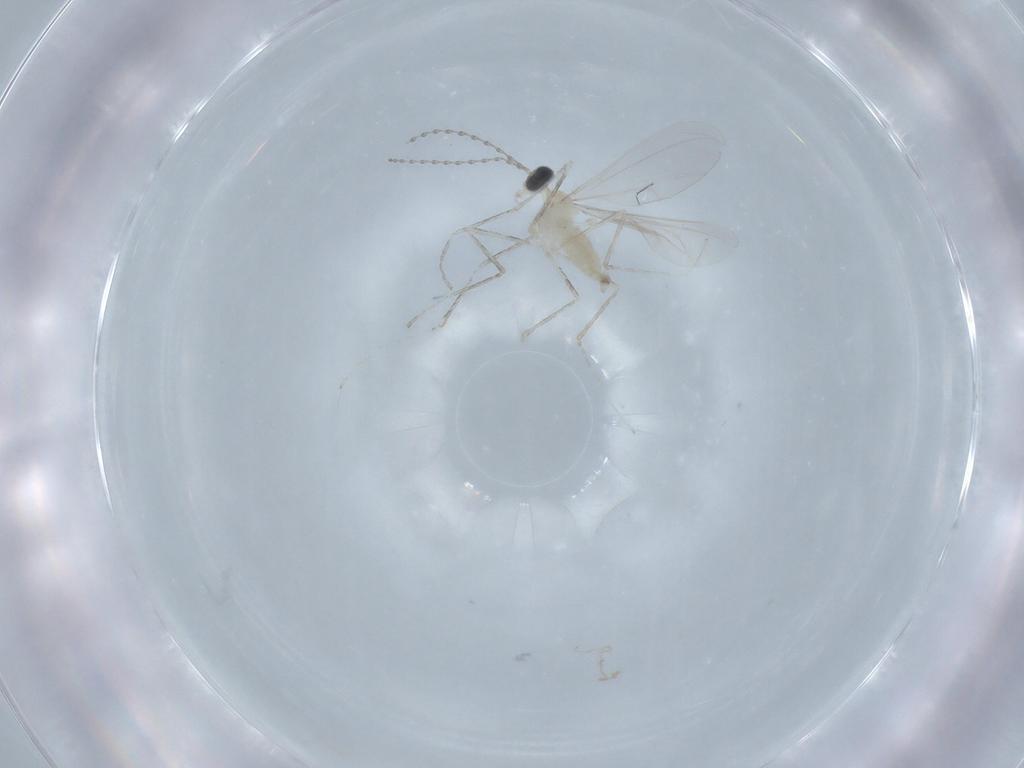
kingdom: Animalia
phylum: Arthropoda
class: Insecta
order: Diptera
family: Cecidomyiidae
